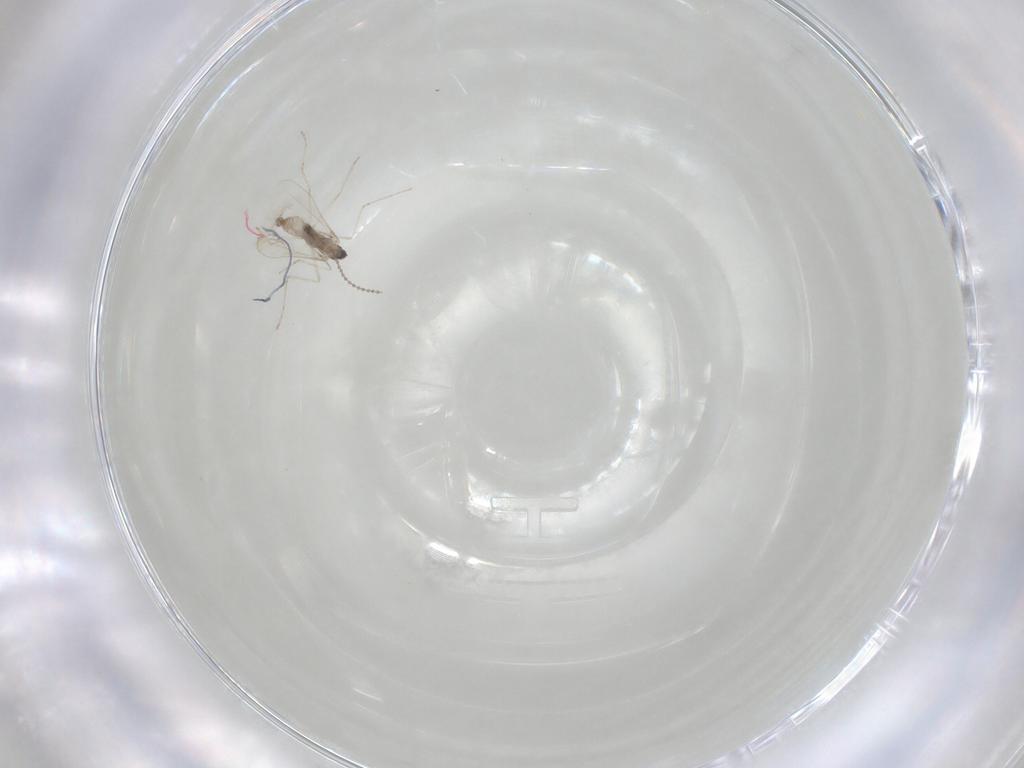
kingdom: Animalia
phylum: Arthropoda
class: Insecta
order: Diptera
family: Cecidomyiidae
